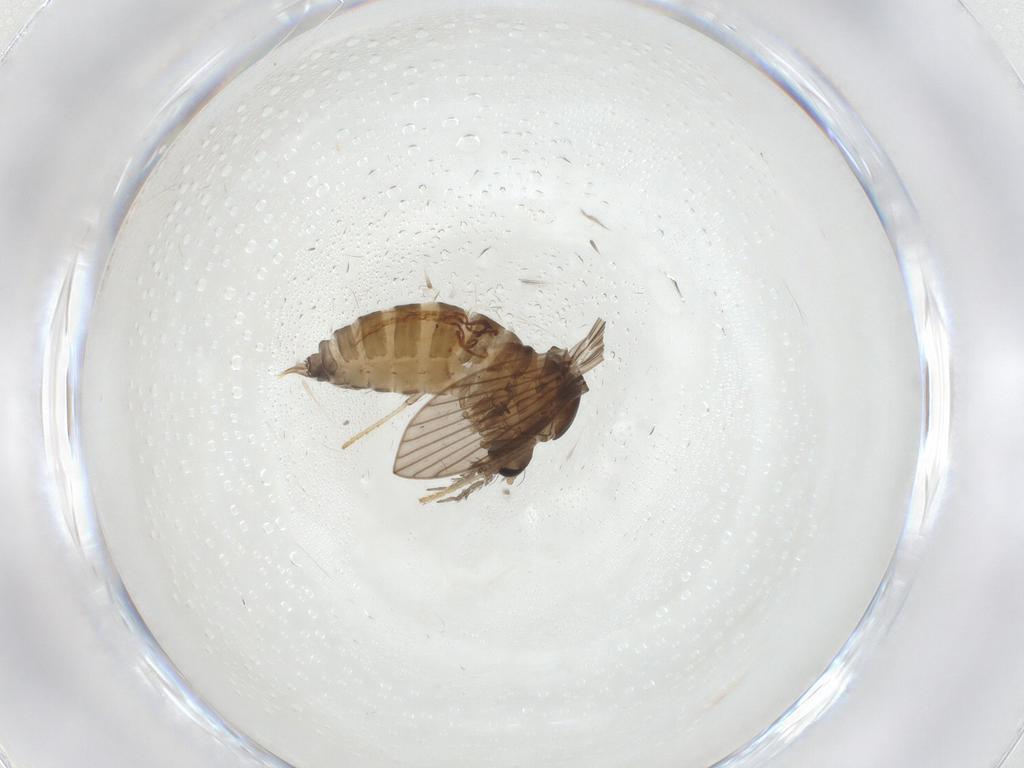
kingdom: Animalia
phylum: Arthropoda
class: Insecta
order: Diptera
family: Psychodidae
